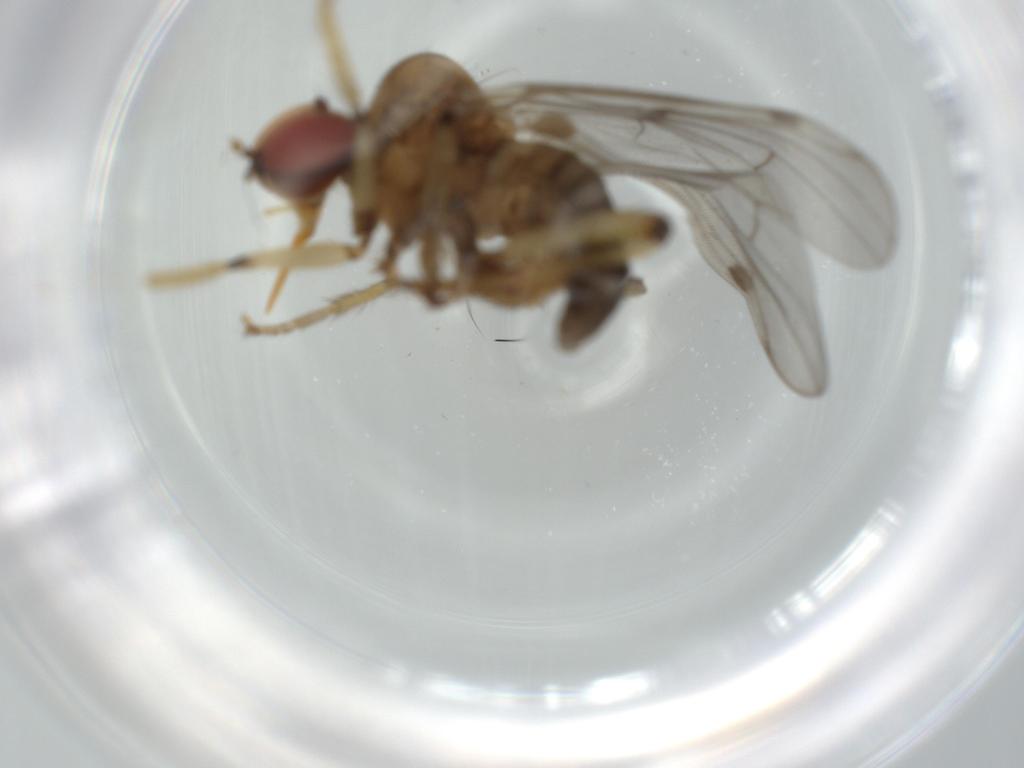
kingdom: Animalia
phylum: Arthropoda
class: Insecta
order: Diptera
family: Hybotidae
